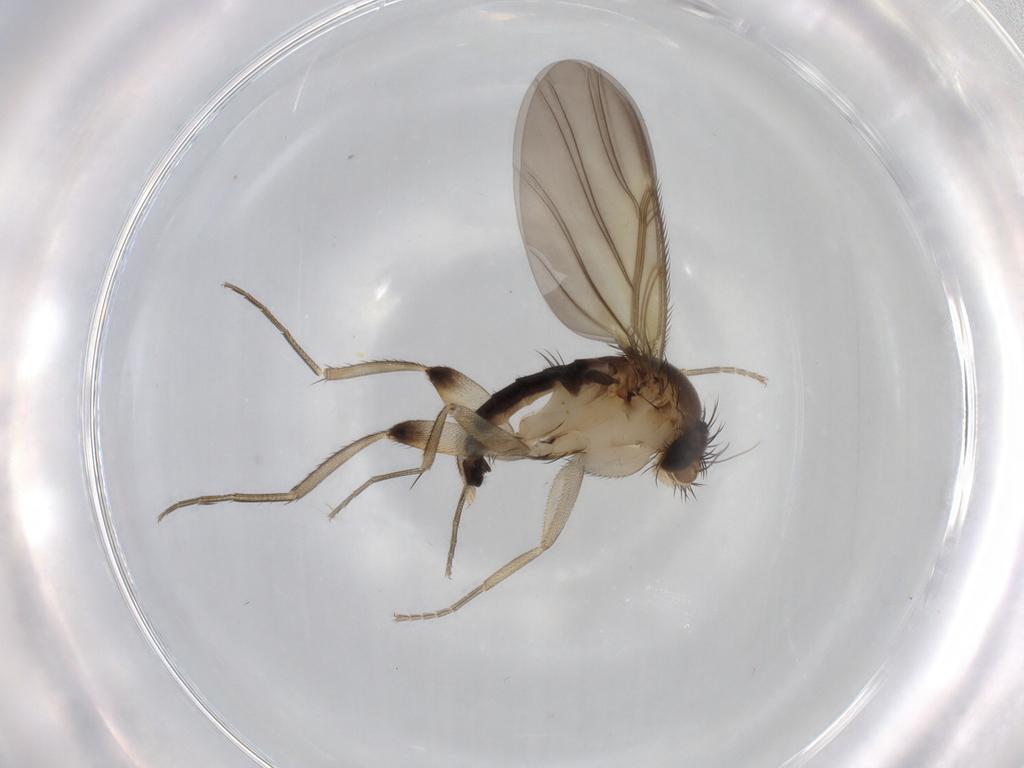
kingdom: Animalia
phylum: Arthropoda
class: Insecta
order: Diptera
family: Phoridae
